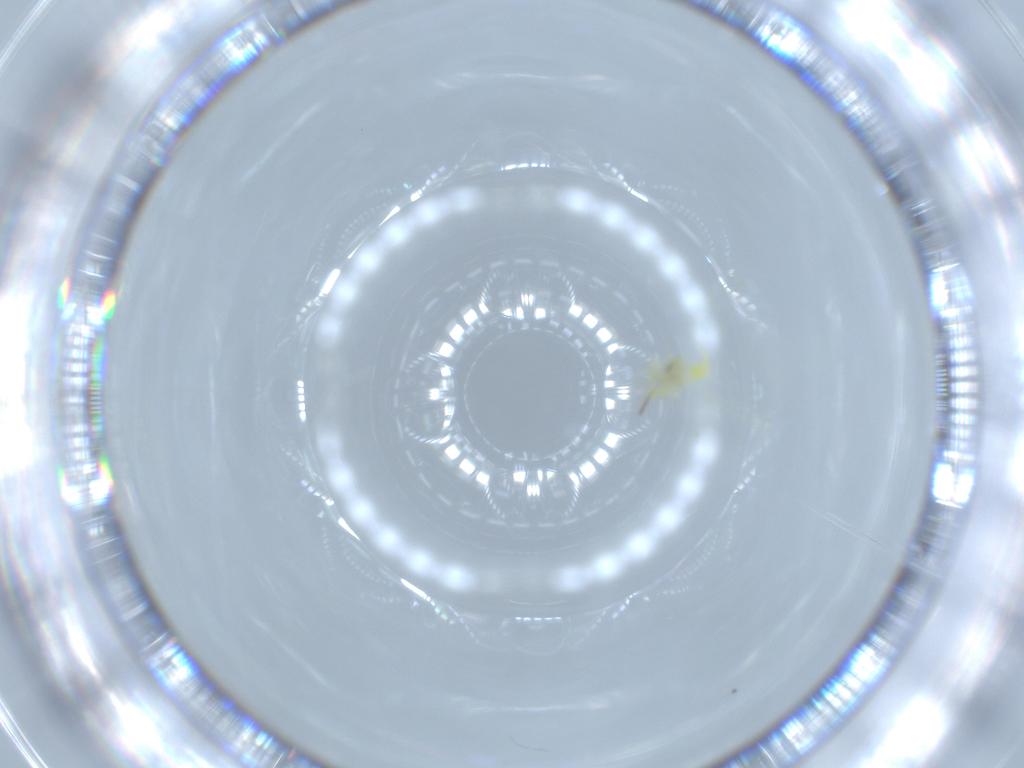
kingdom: Animalia
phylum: Arthropoda
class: Insecta
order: Hemiptera
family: Aleyrodidae
